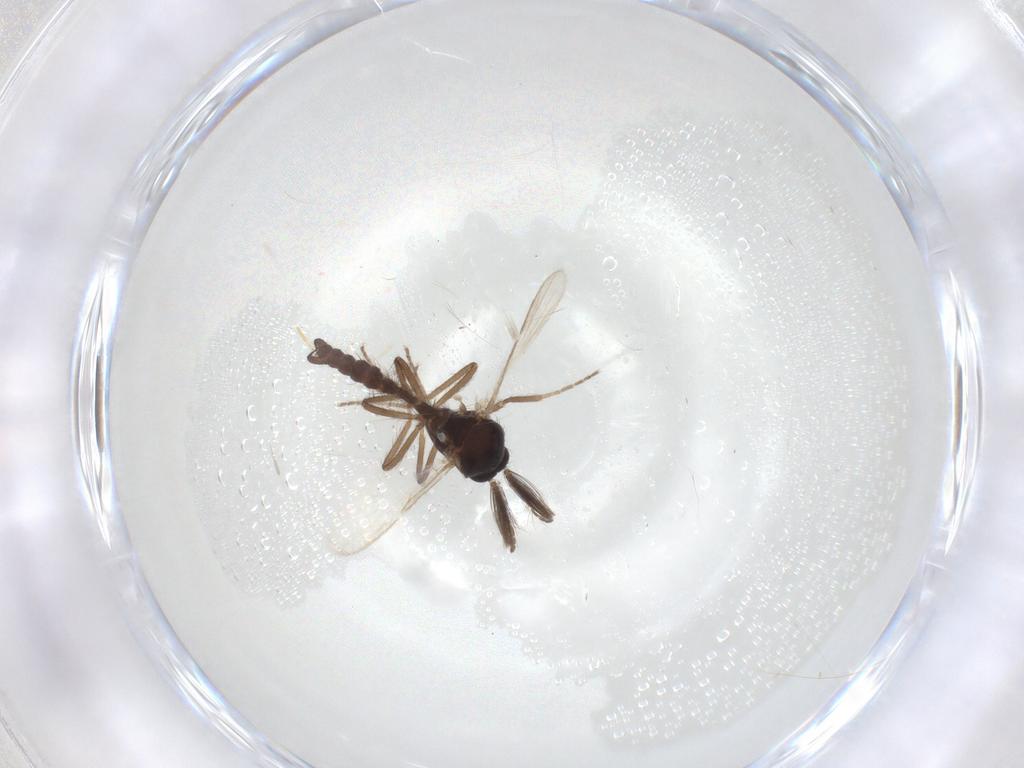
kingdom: Animalia
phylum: Arthropoda
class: Insecta
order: Diptera
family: Ceratopogonidae
